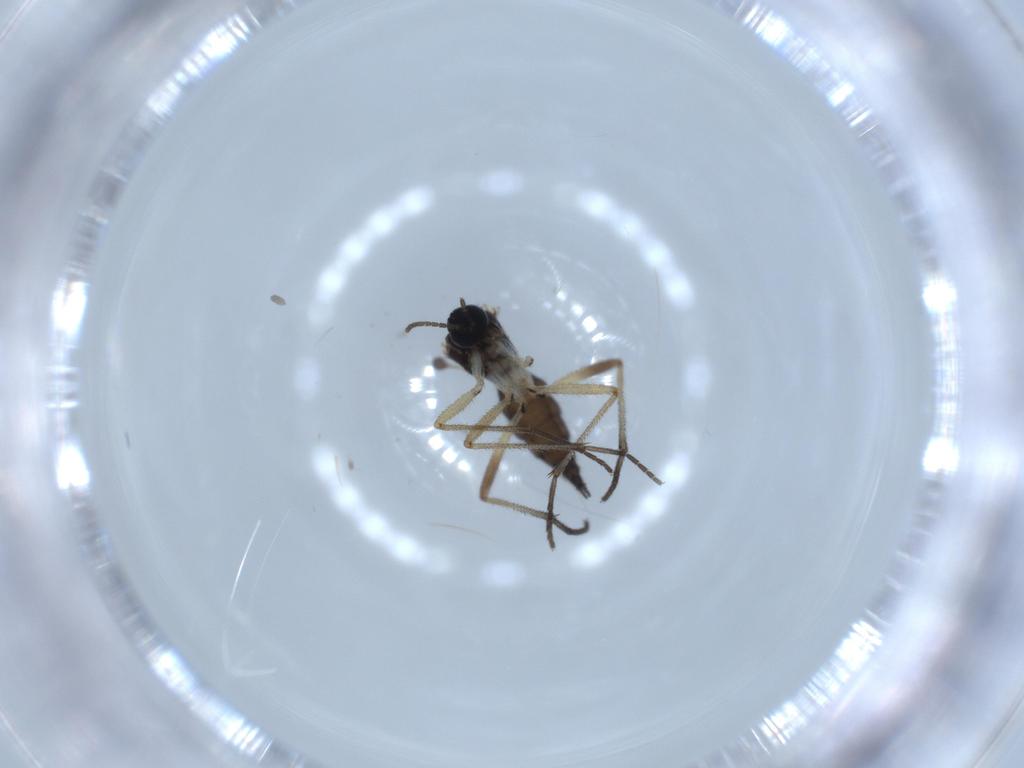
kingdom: Animalia
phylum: Arthropoda
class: Insecta
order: Diptera
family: Sciaridae
